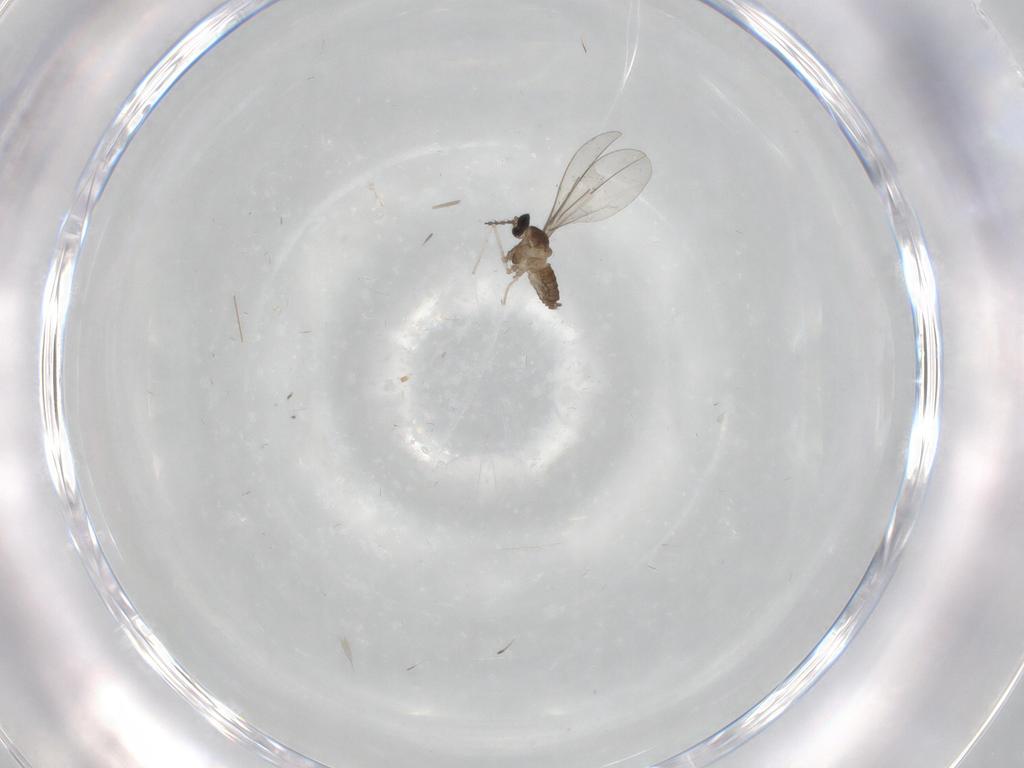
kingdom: Animalia
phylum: Arthropoda
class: Insecta
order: Diptera
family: Cecidomyiidae
